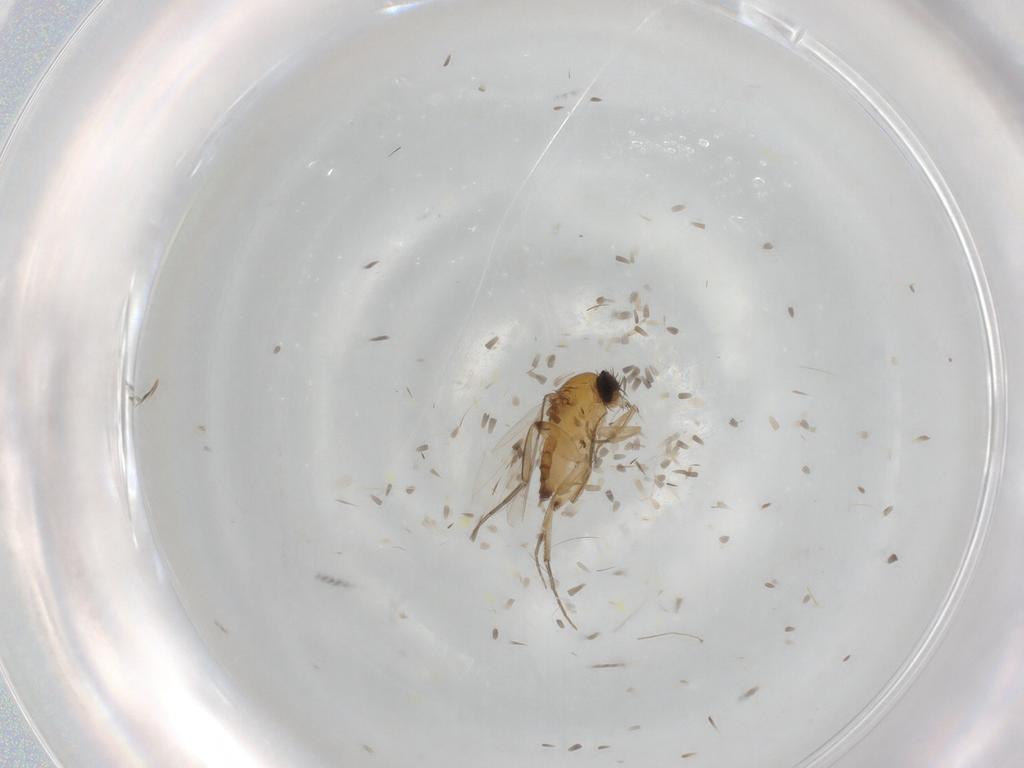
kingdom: Animalia
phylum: Arthropoda
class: Insecta
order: Diptera
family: Tephritidae
